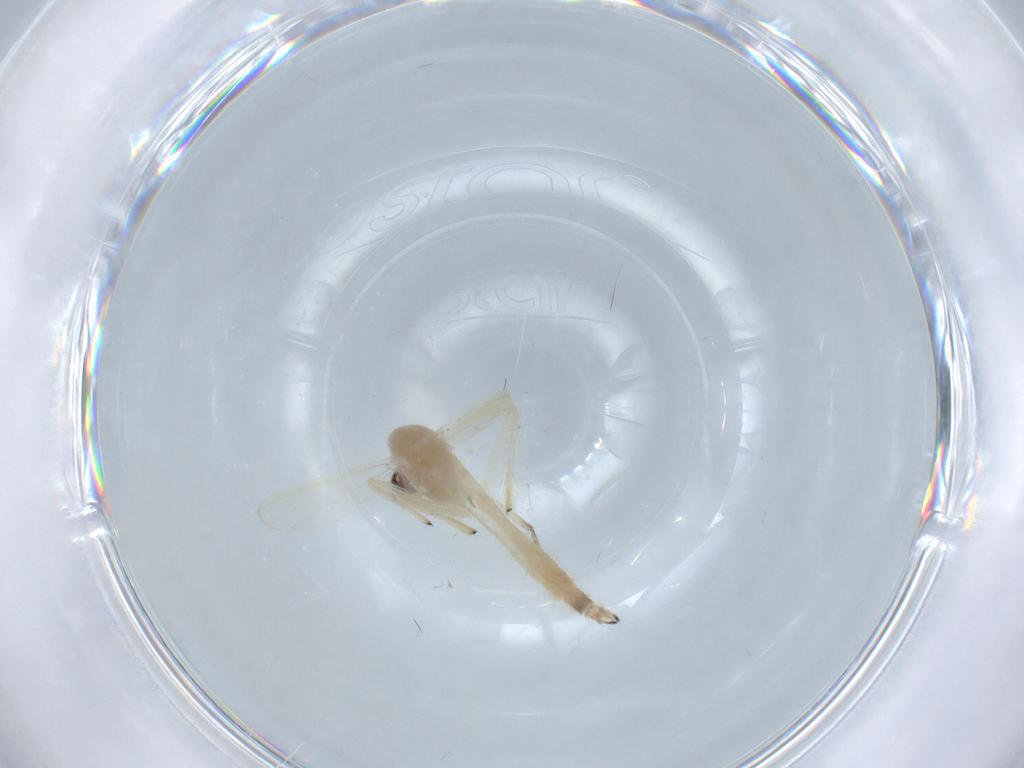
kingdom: Animalia
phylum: Arthropoda
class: Insecta
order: Diptera
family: Chironomidae
